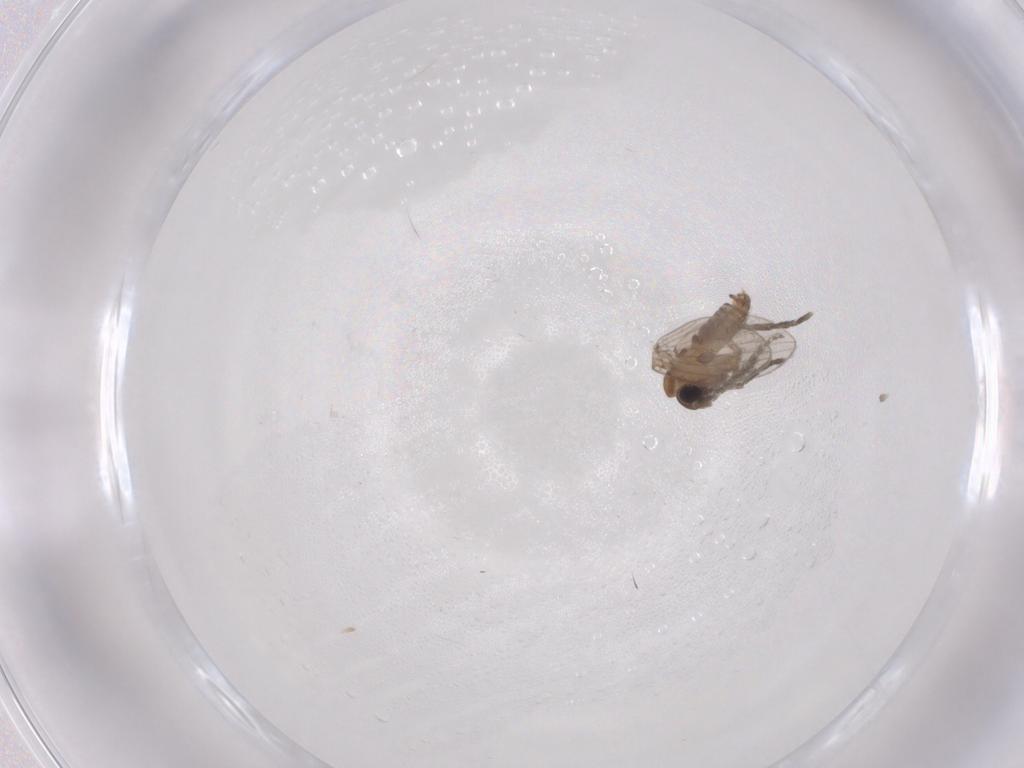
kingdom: Animalia
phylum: Arthropoda
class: Insecta
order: Diptera
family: Psychodidae
